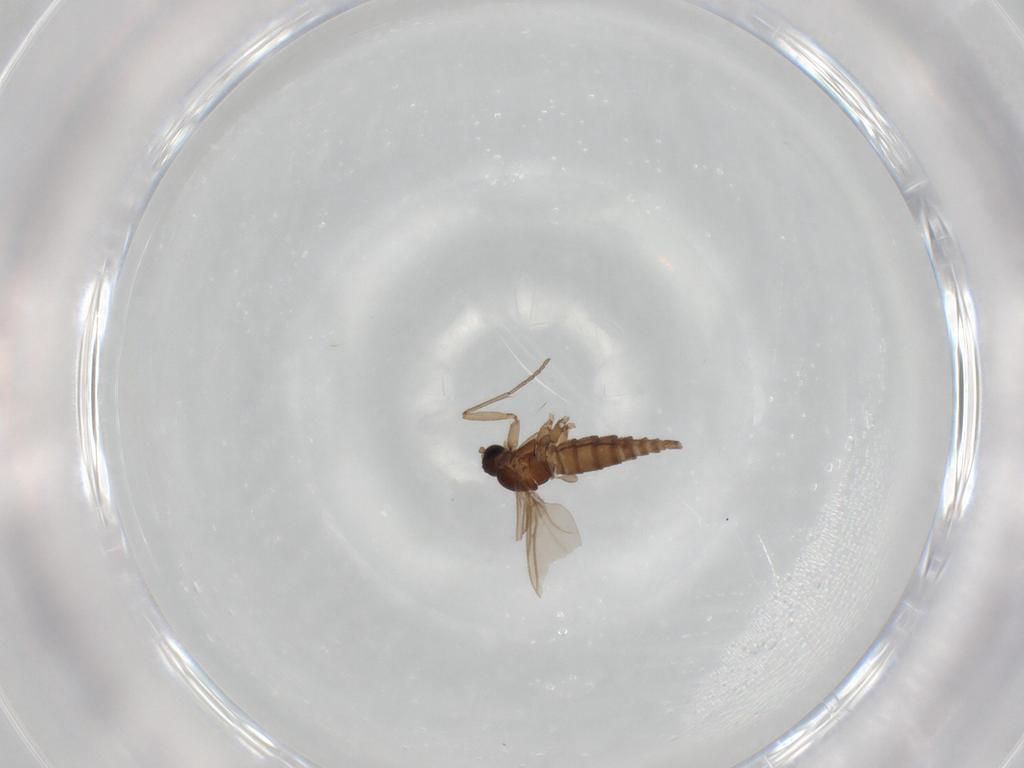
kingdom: Animalia
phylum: Arthropoda
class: Insecta
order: Diptera
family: Sciaridae
